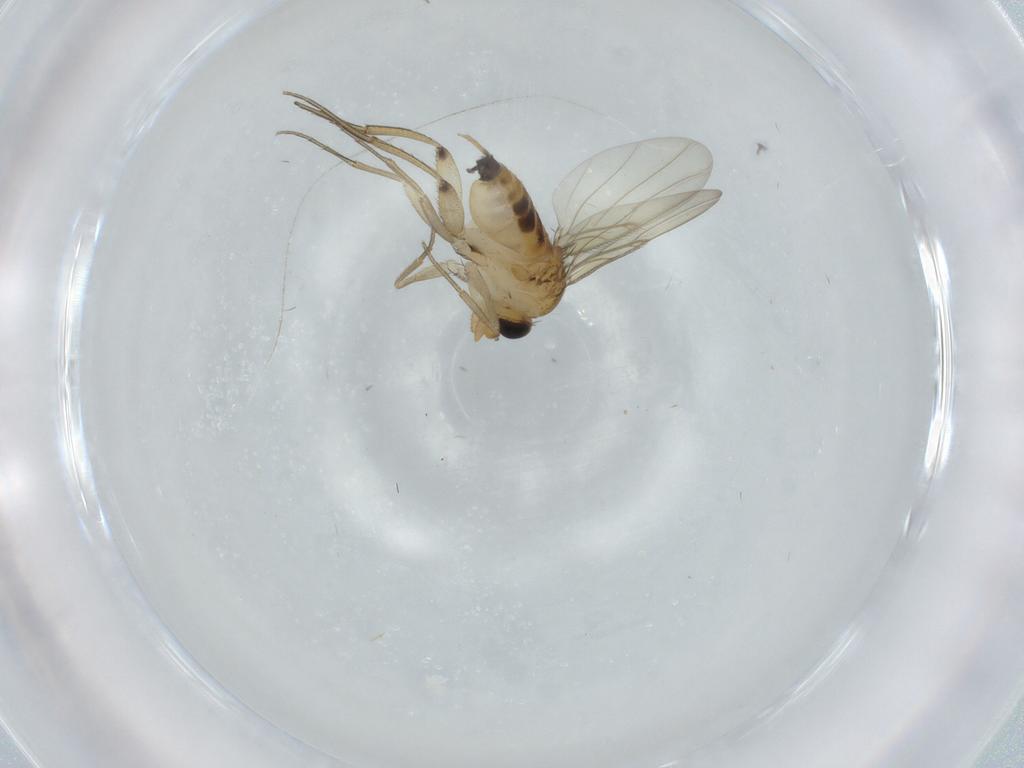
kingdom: Animalia
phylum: Arthropoda
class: Insecta
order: Diptera
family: Phoridae
